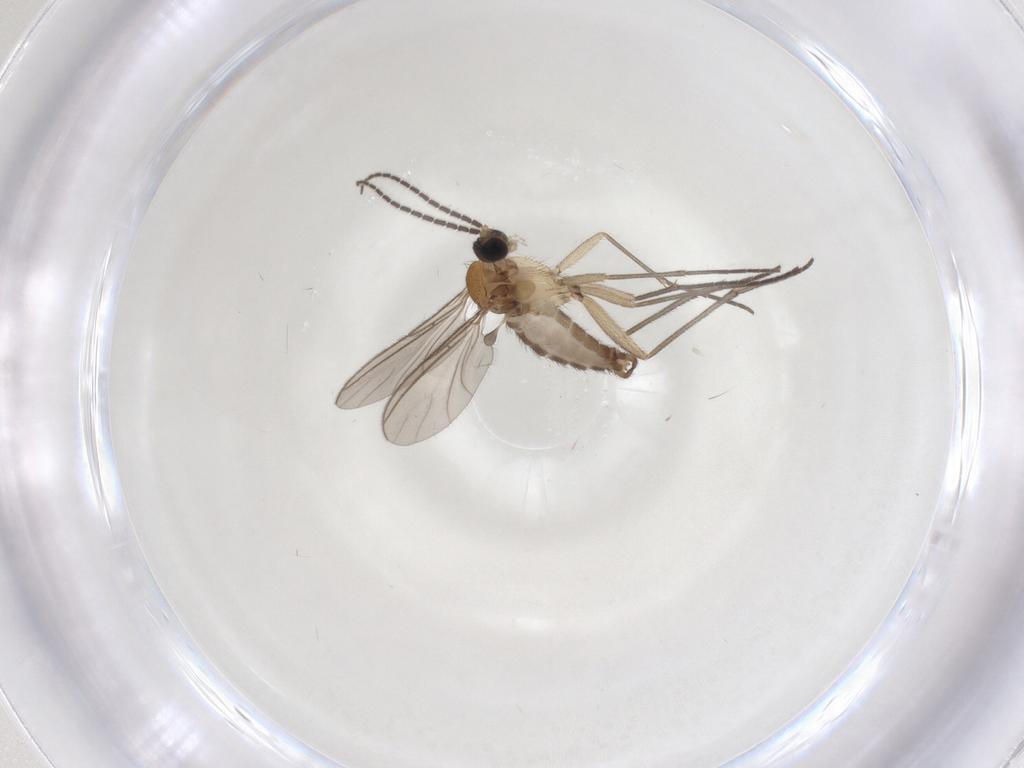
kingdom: Animalia
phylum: Arthropoda
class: Insecta
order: Diptera
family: Sciaridae
